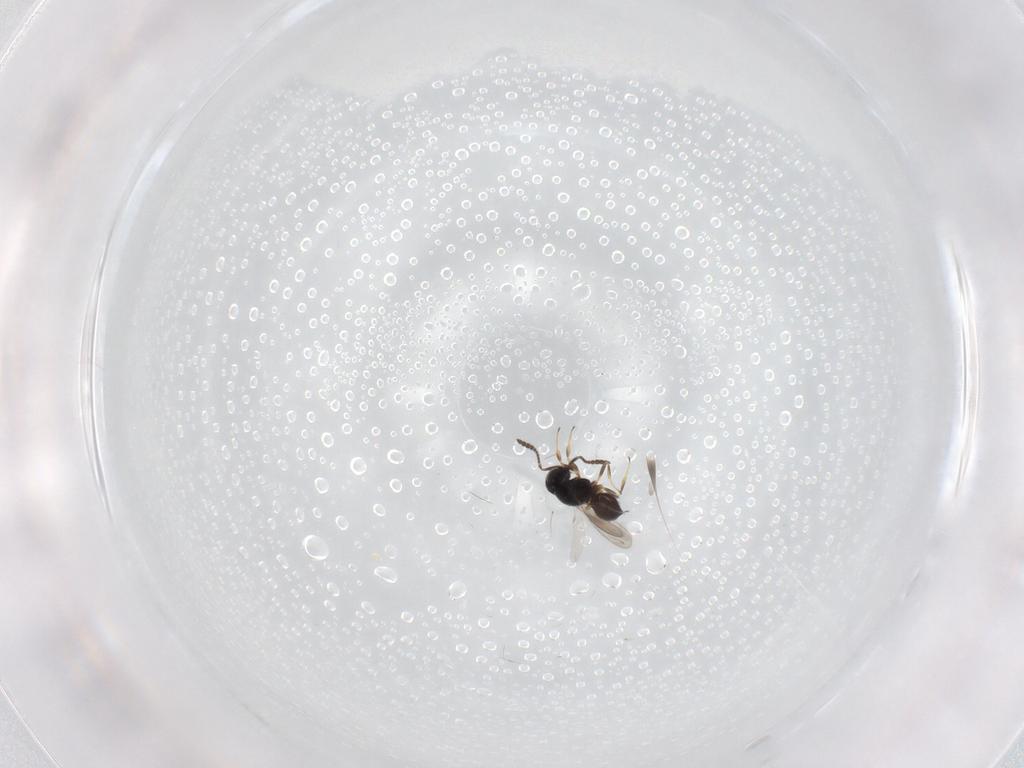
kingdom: Animalia
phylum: Arthropoda
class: Insecta
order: Hymenoptera
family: Scelionidae
